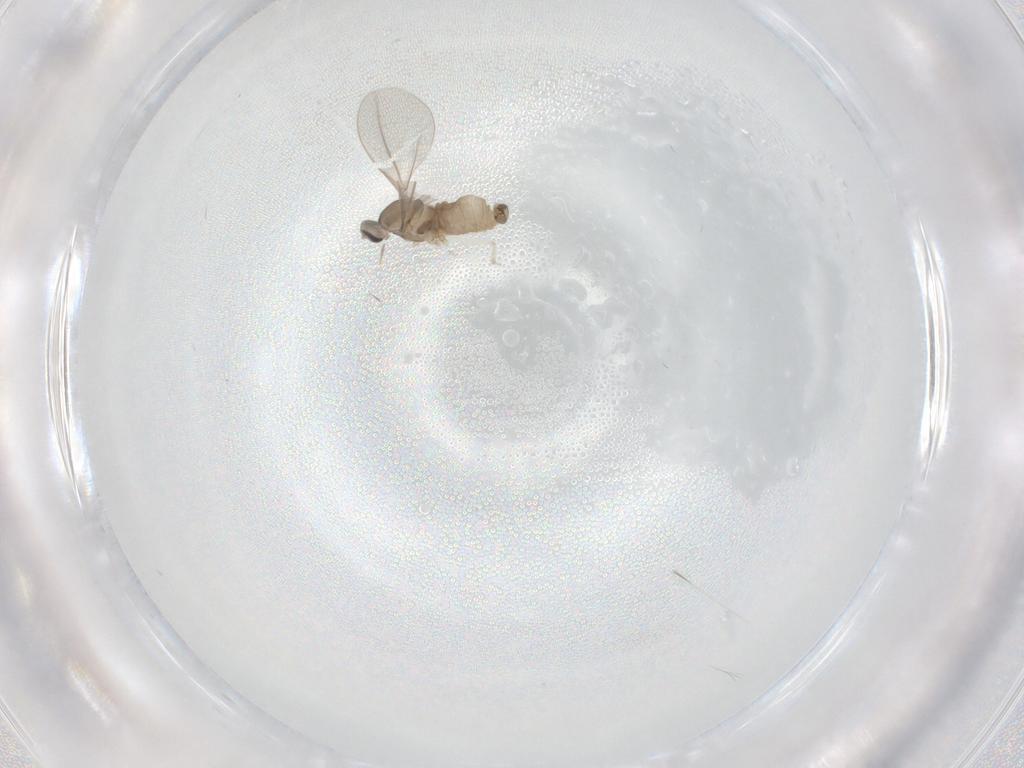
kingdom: Animalia
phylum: Arthropoda
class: Insecta
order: Diptera
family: Cecidomyiidae
